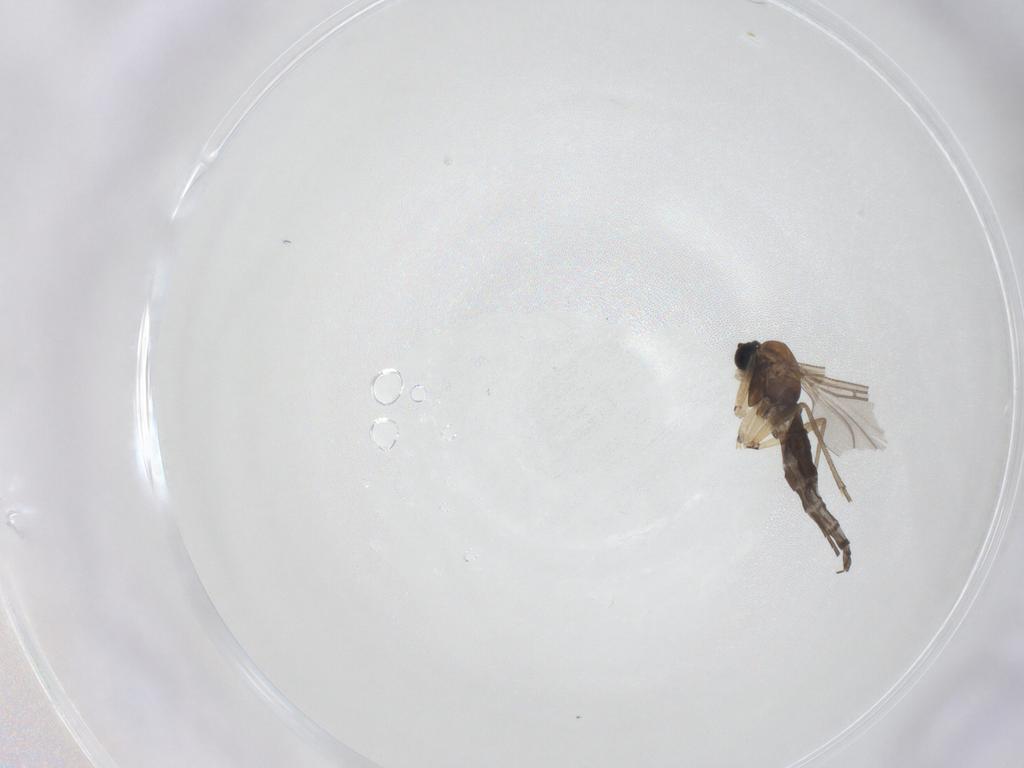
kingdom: Animalia
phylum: Arthropoda
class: Insecta
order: Diptera
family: Sciaridae
